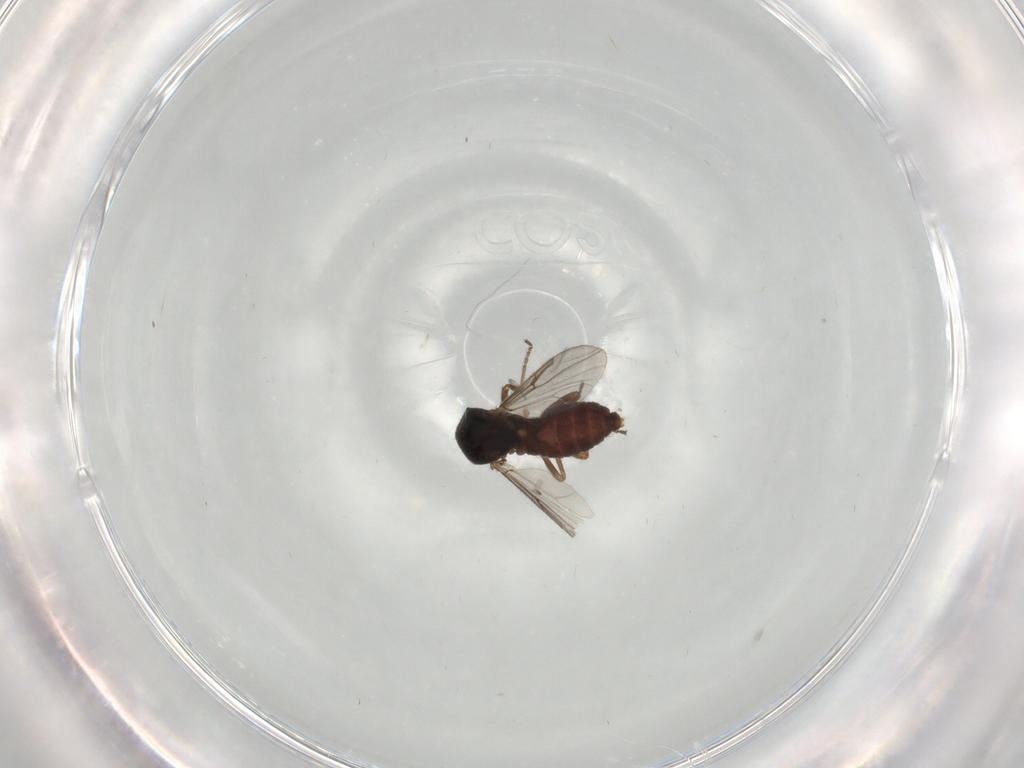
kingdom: Animalia
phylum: Arthropoda
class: Insecta
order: Diptera
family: Ceratopogonidae
